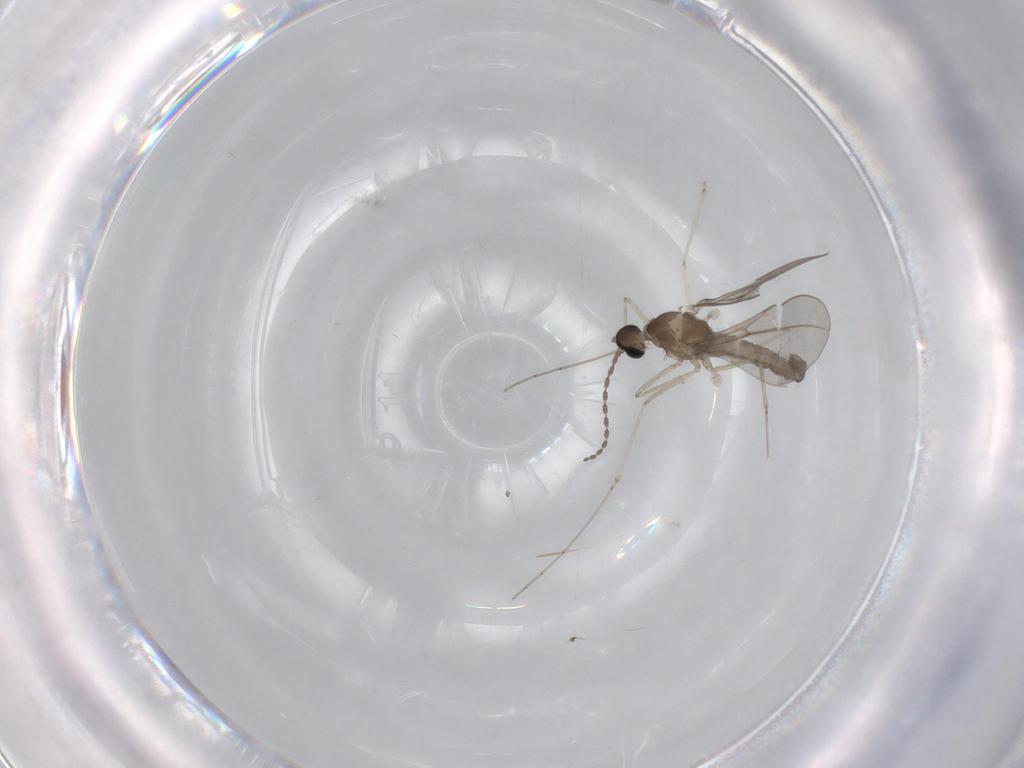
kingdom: Animalia
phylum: Arthropoda
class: Insecta
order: Diptera
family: Cecidomyiidae
